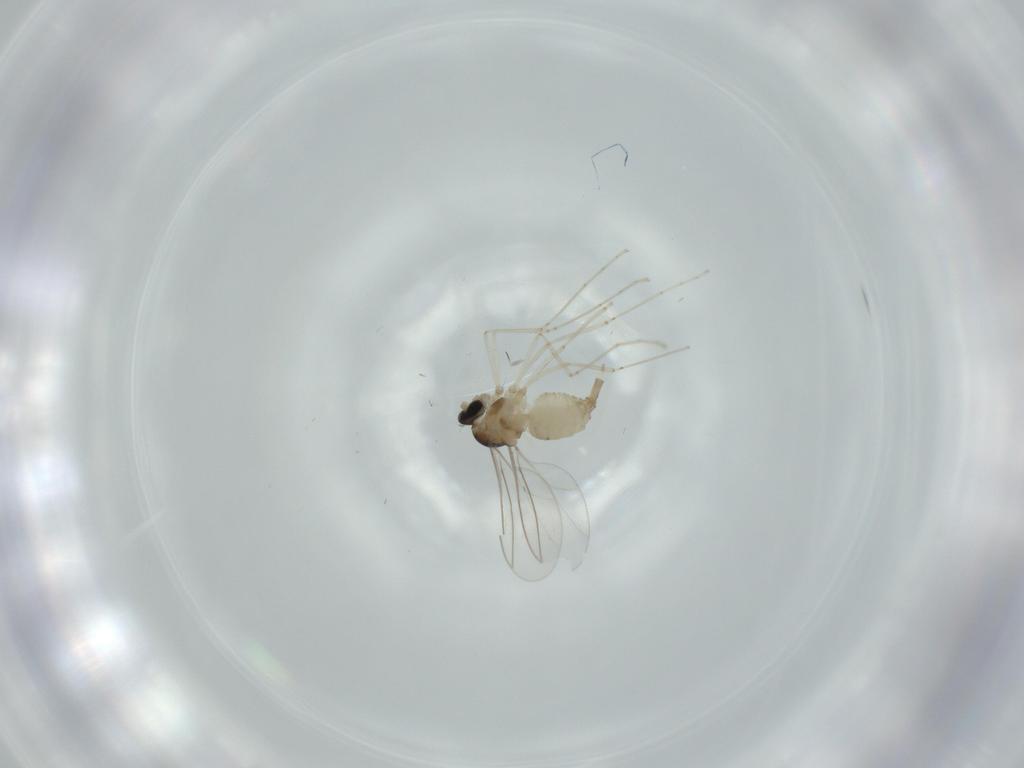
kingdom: Animalia
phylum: Arthropoda
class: Insecta
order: Diptera
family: Cecidomyiidae
